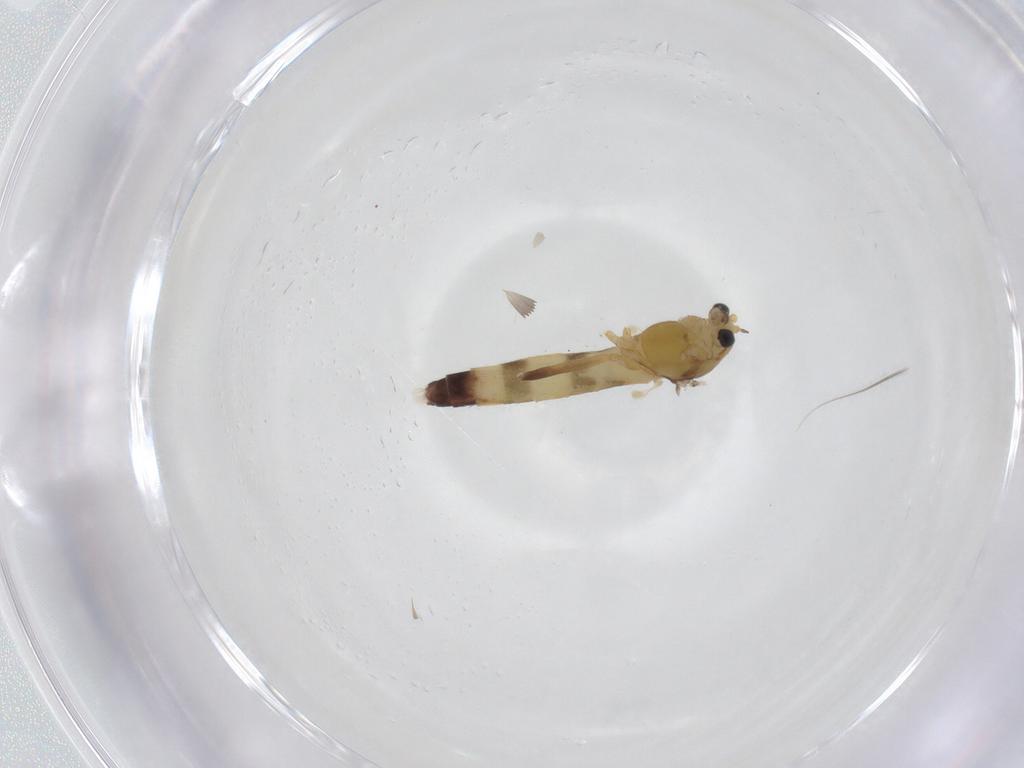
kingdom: Animalia
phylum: Arthropoda
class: Insecta
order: Diptera
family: Chironomidae
